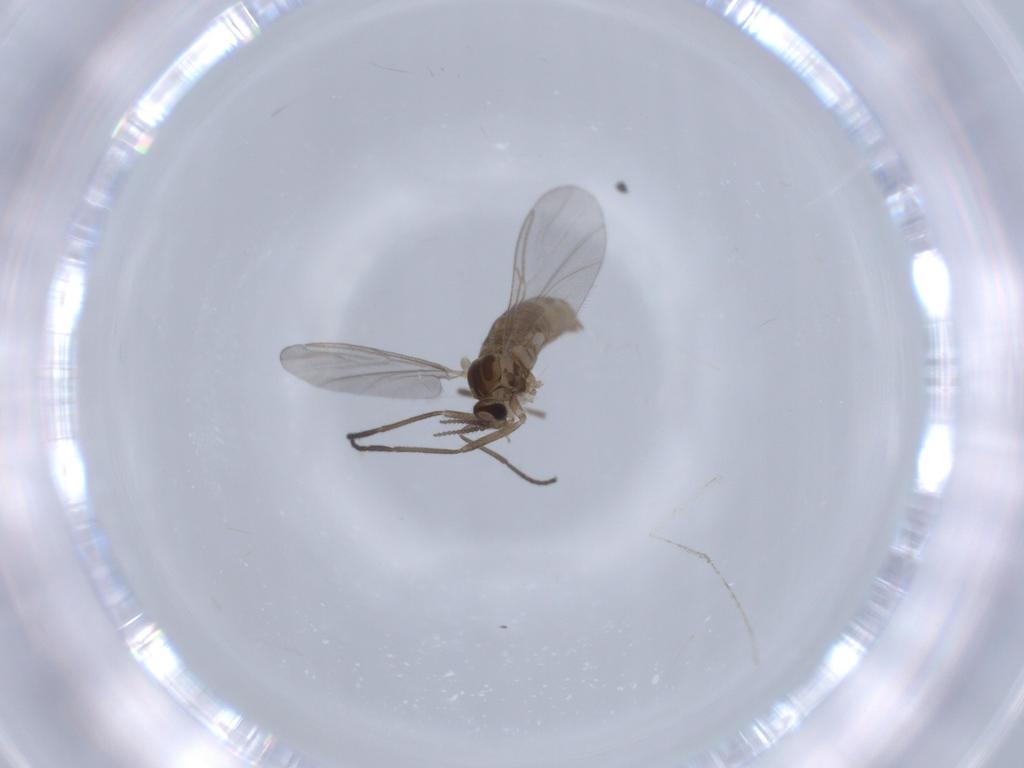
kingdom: Animalia
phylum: Arthropoda
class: Insecta
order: Diptera
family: Cecidomyiidae
